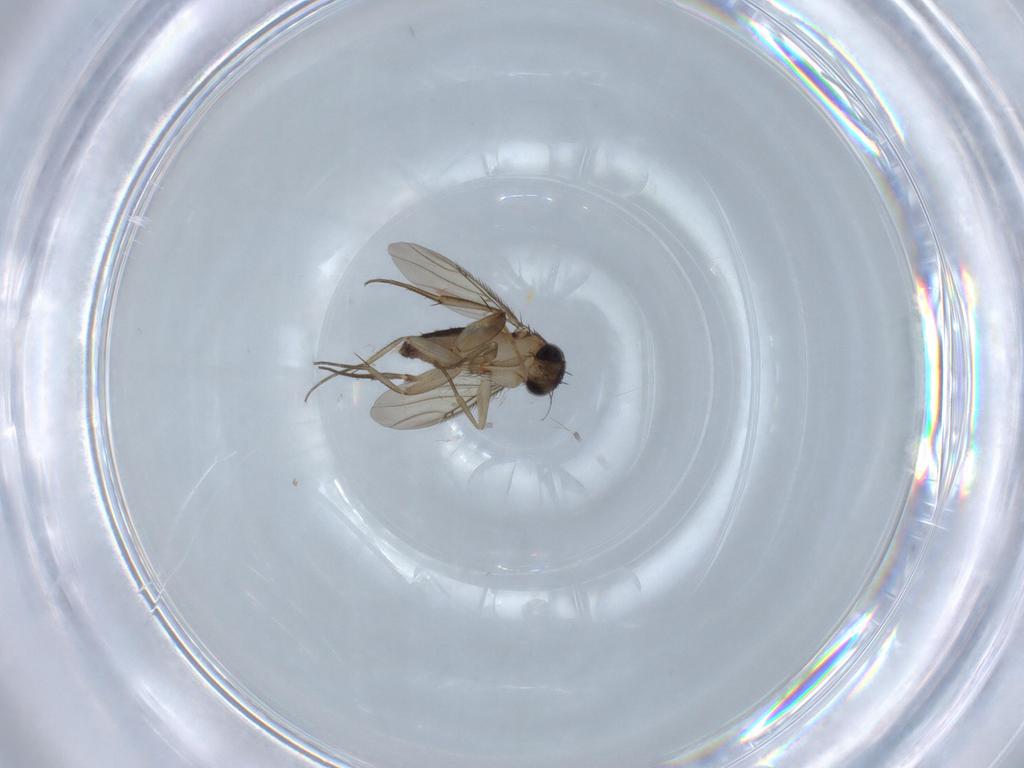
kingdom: Animalia
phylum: Arthropoda
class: Insecta
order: Diptera
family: Phoridae
